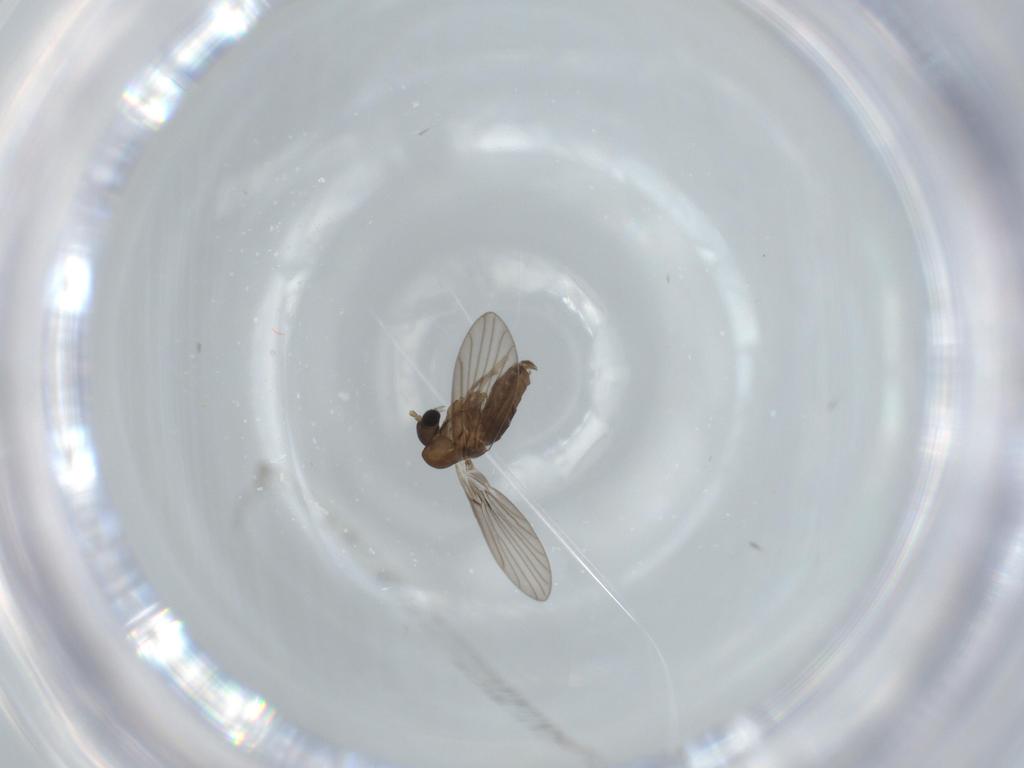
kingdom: Animalia
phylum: Arthropoda
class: Insecta
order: Diptera
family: Psychodidae
